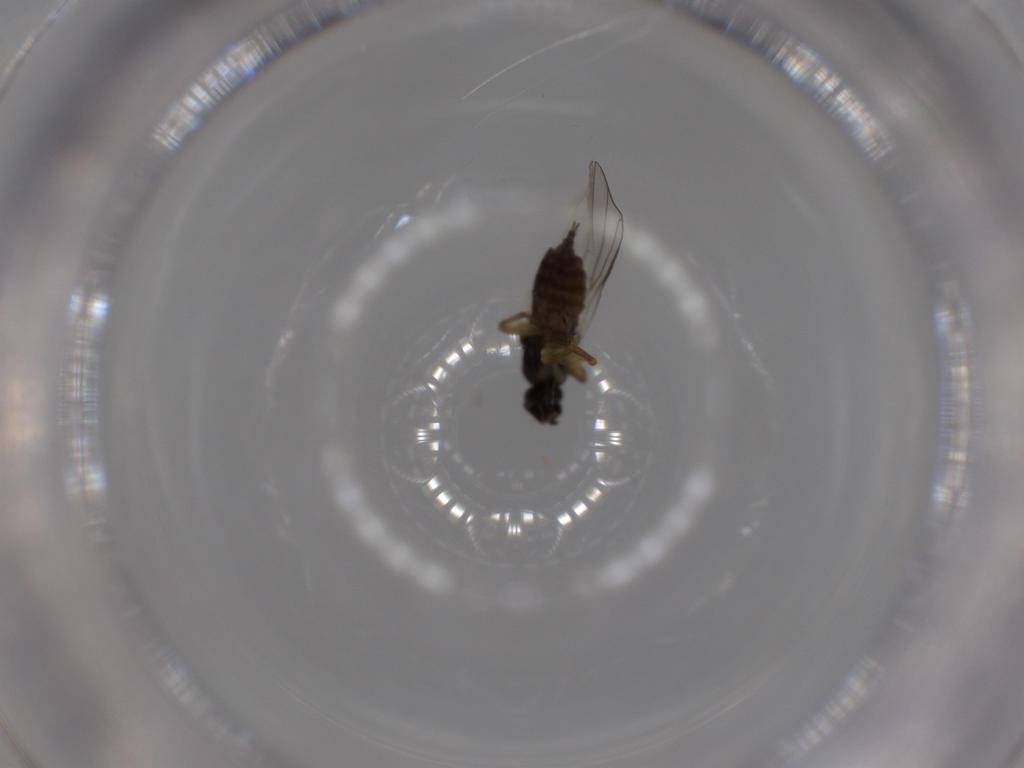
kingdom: Animalia
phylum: Arthropoda
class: Insecta
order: Diptera
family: Hybotidae
